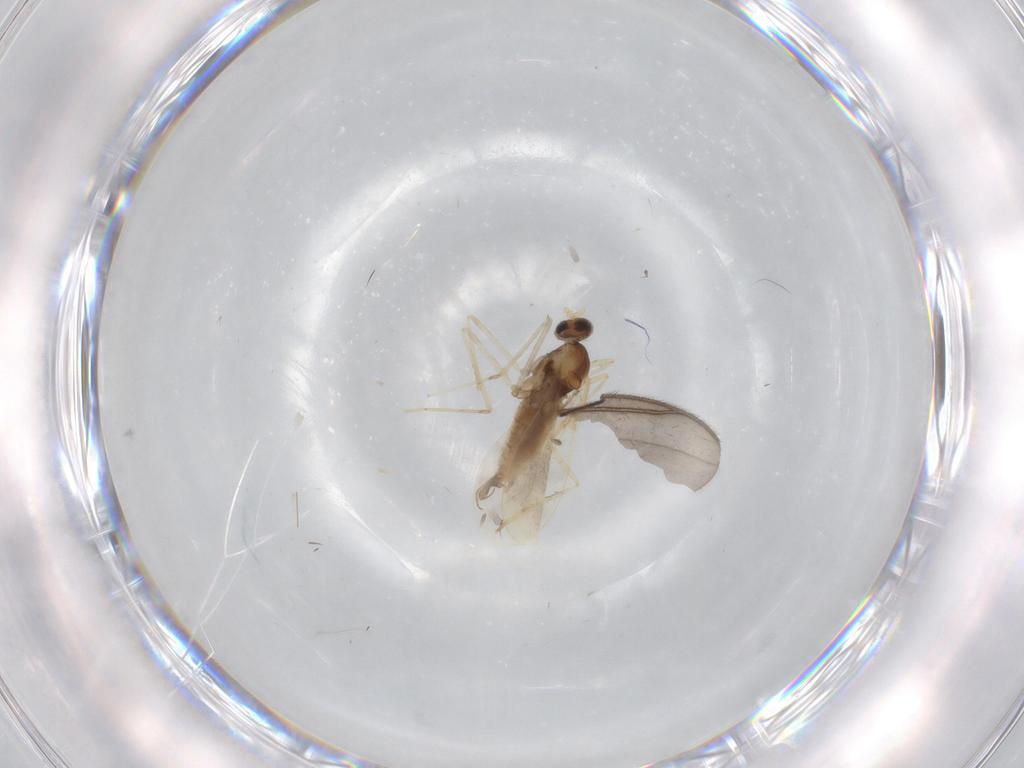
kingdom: Animalia
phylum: Arthropoda
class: Insecta
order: Diptera
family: Cecidomyiidae
